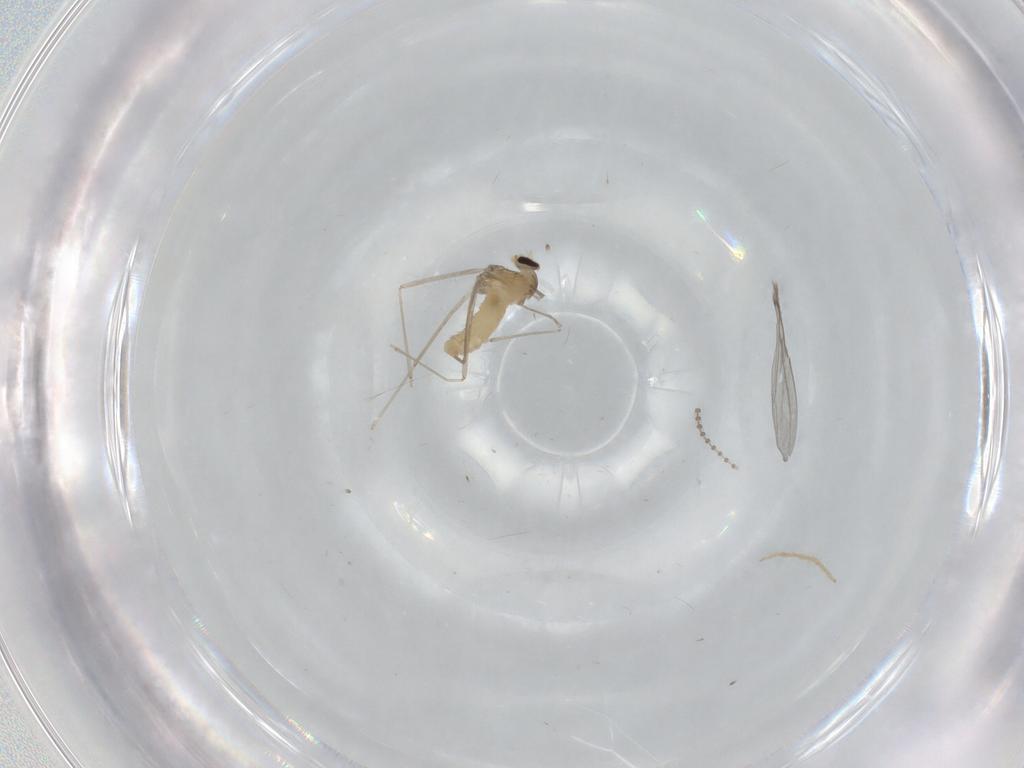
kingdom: Animalia
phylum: Arthropoda
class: Insecta
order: Diptera
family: Cecidomyiidae
